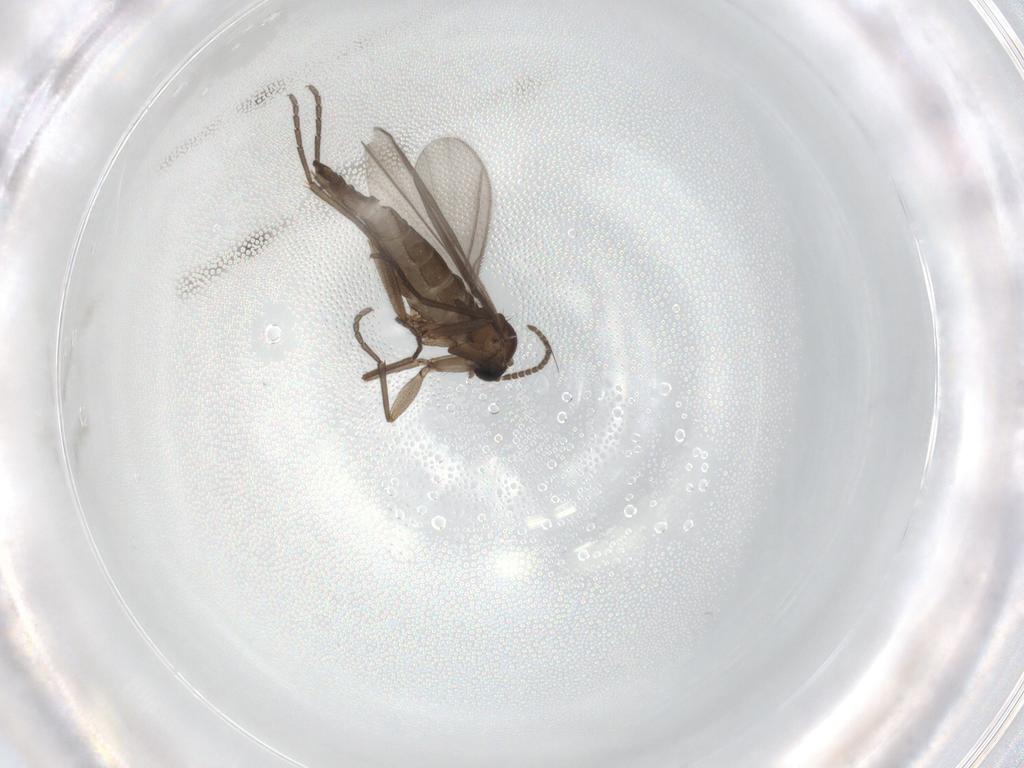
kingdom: Animalia
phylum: Arthropoda
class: Insecta
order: Diptera
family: Sciaridae
